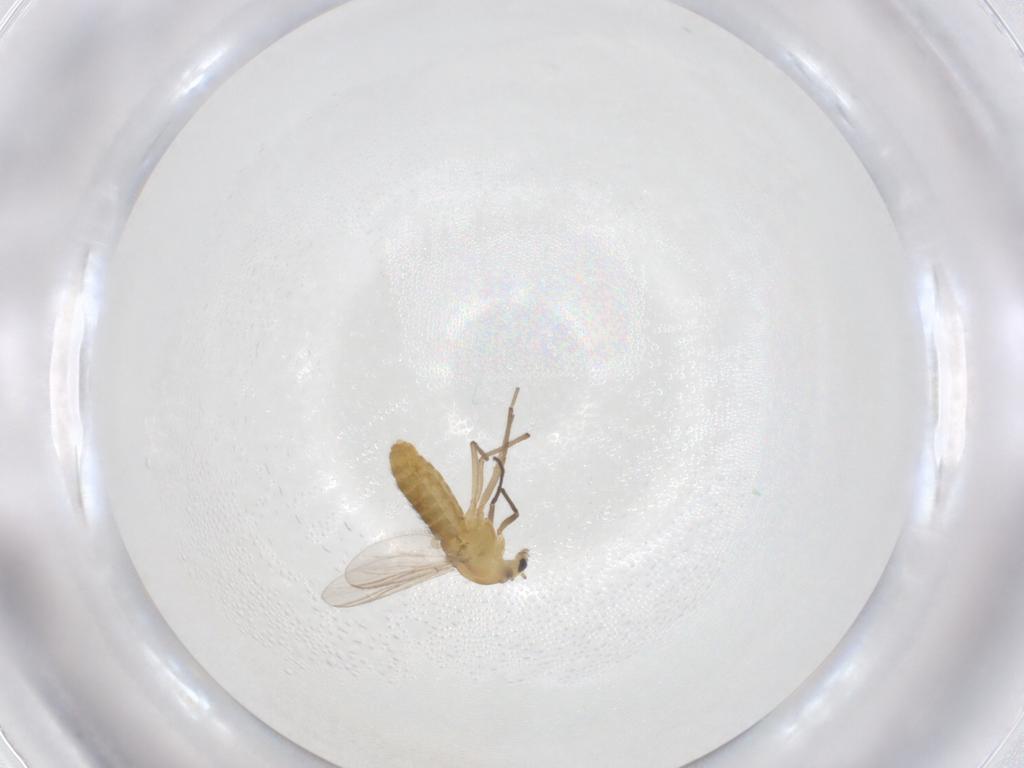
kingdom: Animalia
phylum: Arthropoda
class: Insecta
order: Diptera
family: Chironomidae
